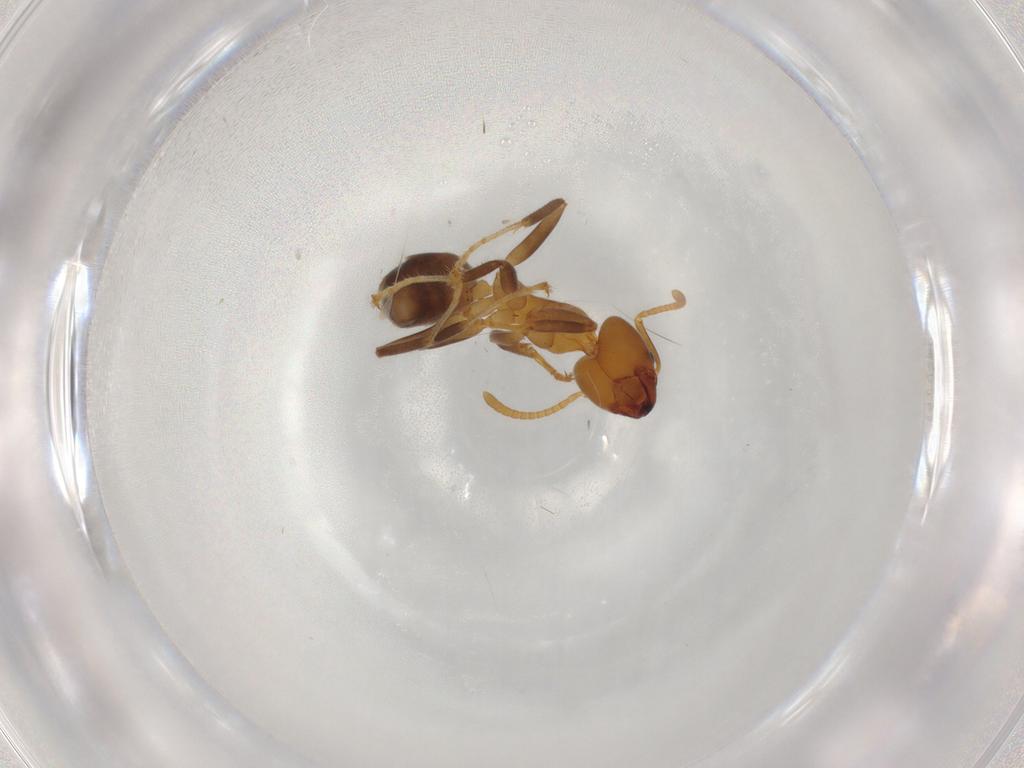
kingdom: Animalia
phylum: Arthropoda
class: Insecta
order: Hymenoptera
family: Formicidae
